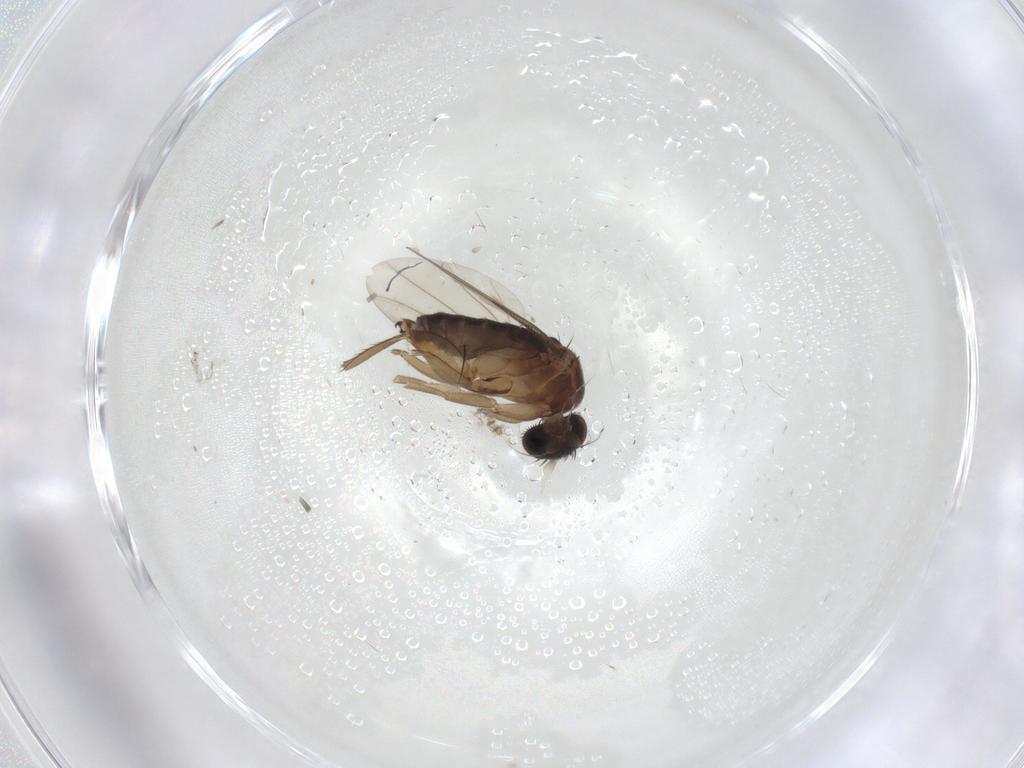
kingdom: Animalia
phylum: Arthropoda
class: Insecta
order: Diptera
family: Phoridae
